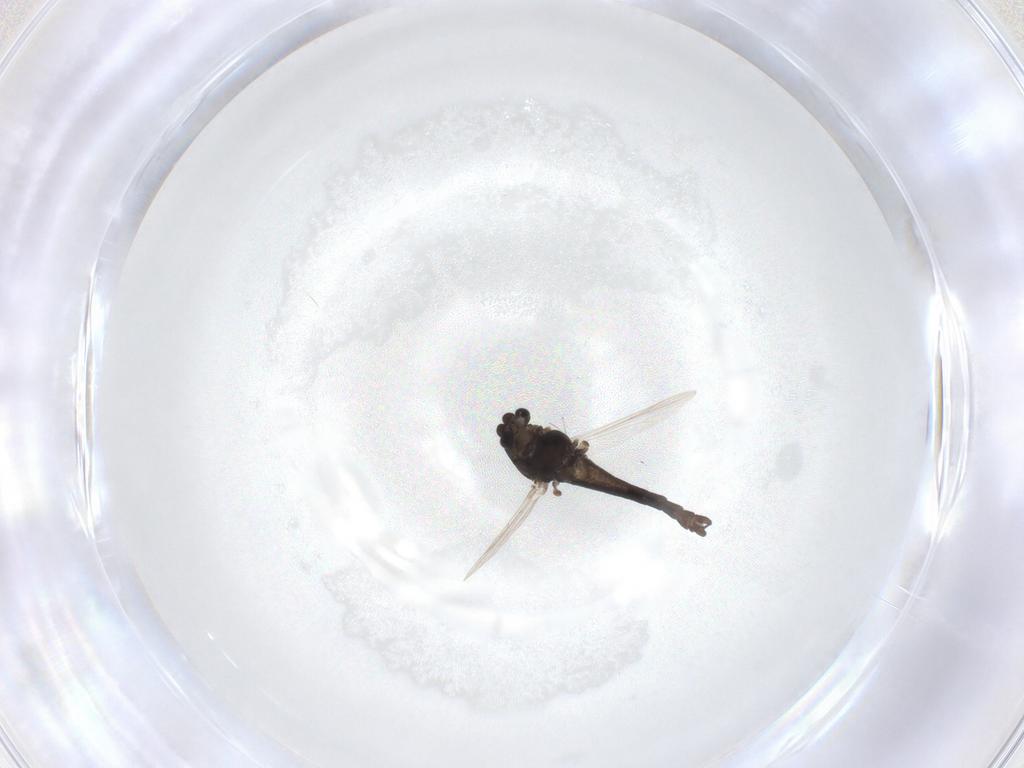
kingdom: Animalia
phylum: Arthropoda
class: Insecta
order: Diptera
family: Chironomidae
